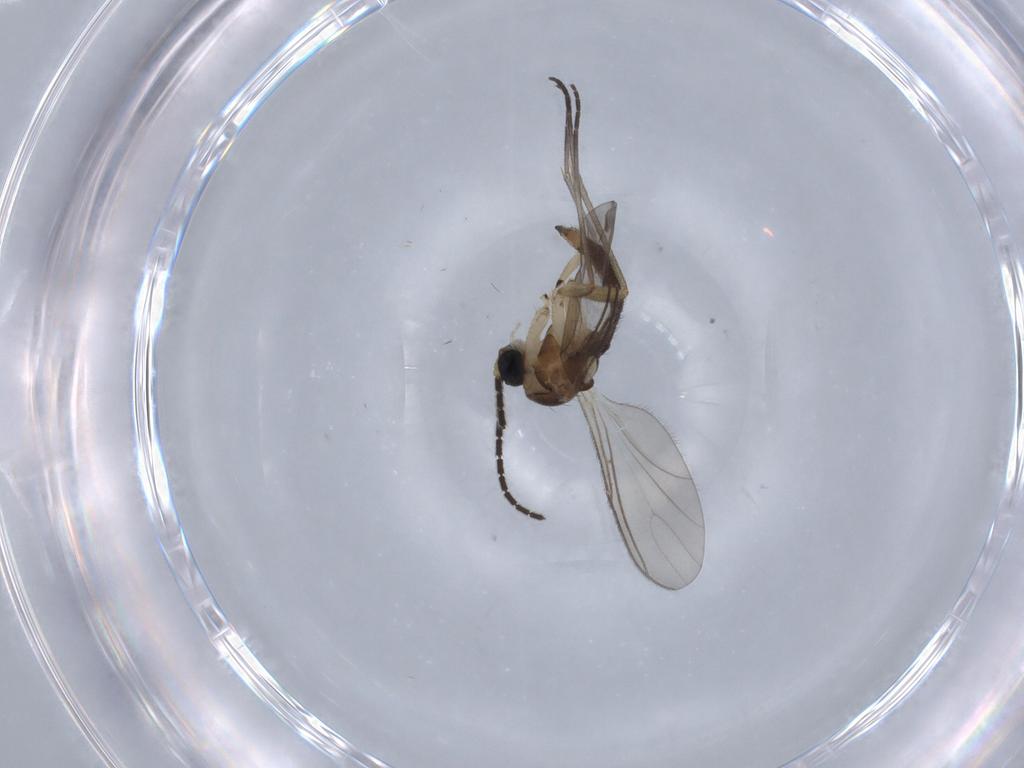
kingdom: Animalia
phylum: Arthropoda
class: Insecta
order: Diptera
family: Sciaridae
